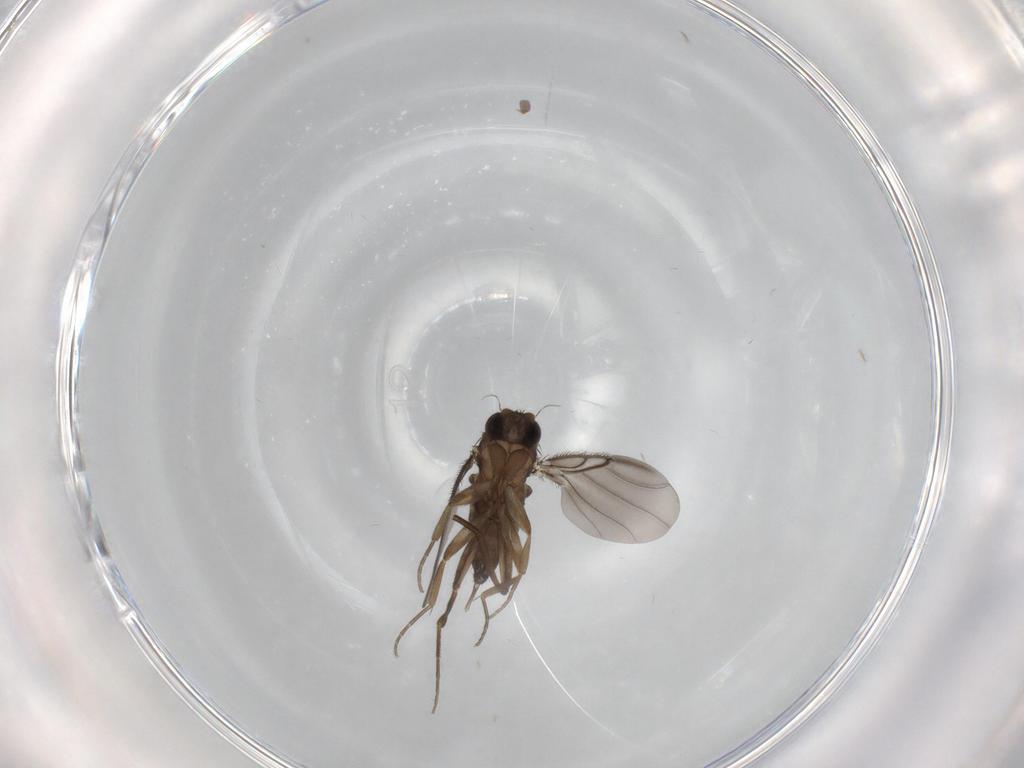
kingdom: Animalia
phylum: Arthropoda
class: Insecta
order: Diptera
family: Phoridae
